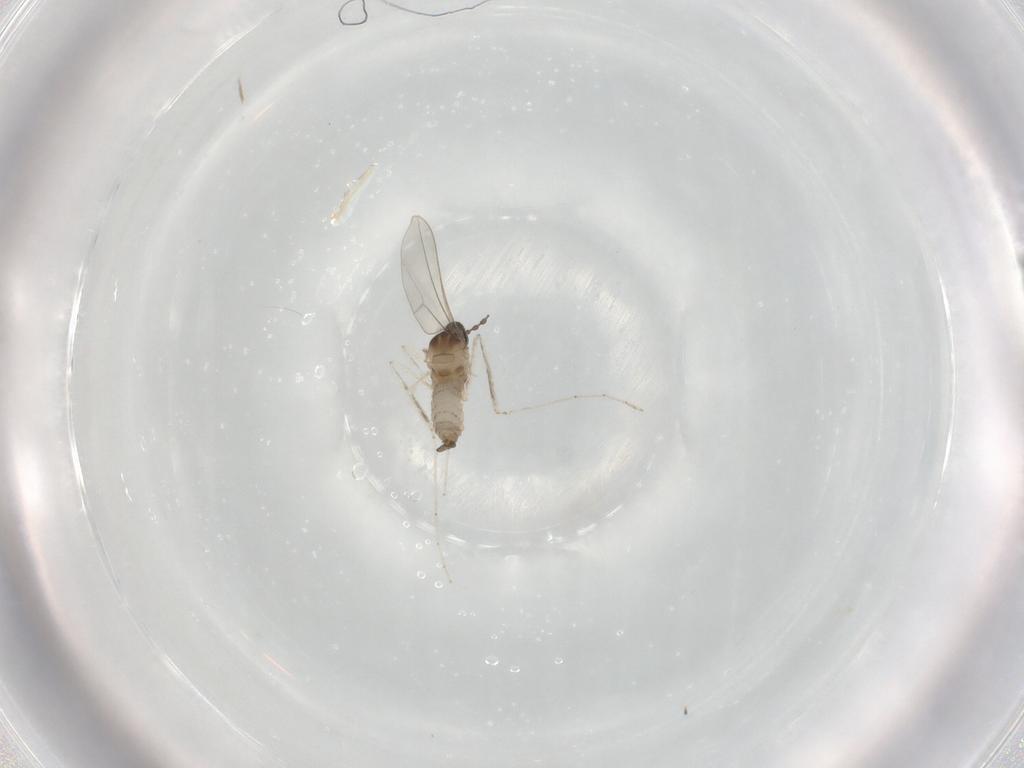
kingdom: Animalia
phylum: Arthropoda
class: Insecta
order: Diptera
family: Cecidomyiidae
